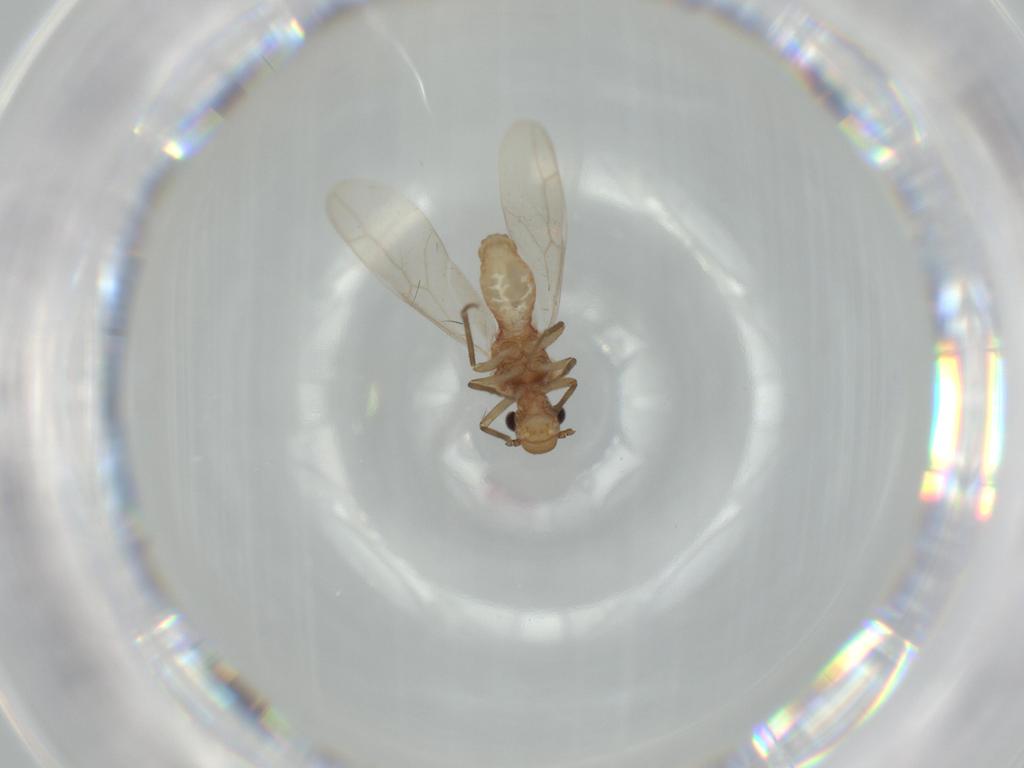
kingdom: Animalia
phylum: Arthropoda
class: Insecta
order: Psocodea
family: Caeciliusidae
